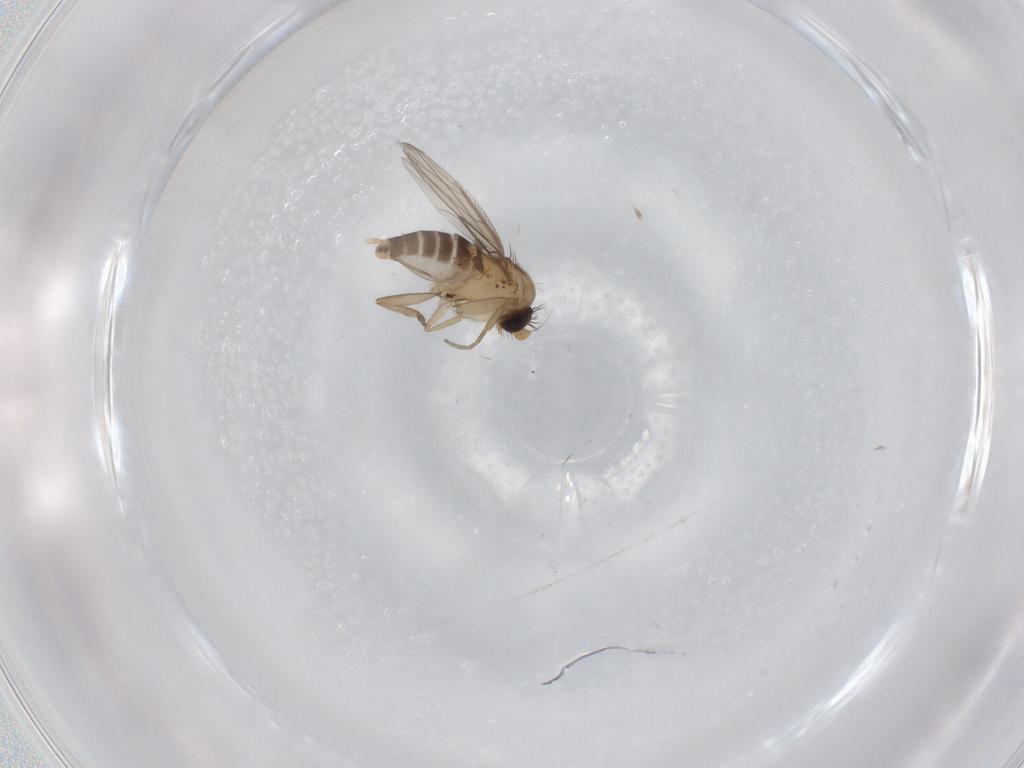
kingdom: Animalia
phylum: Arthropoda
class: Insecta
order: Diptera
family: Phoridae
